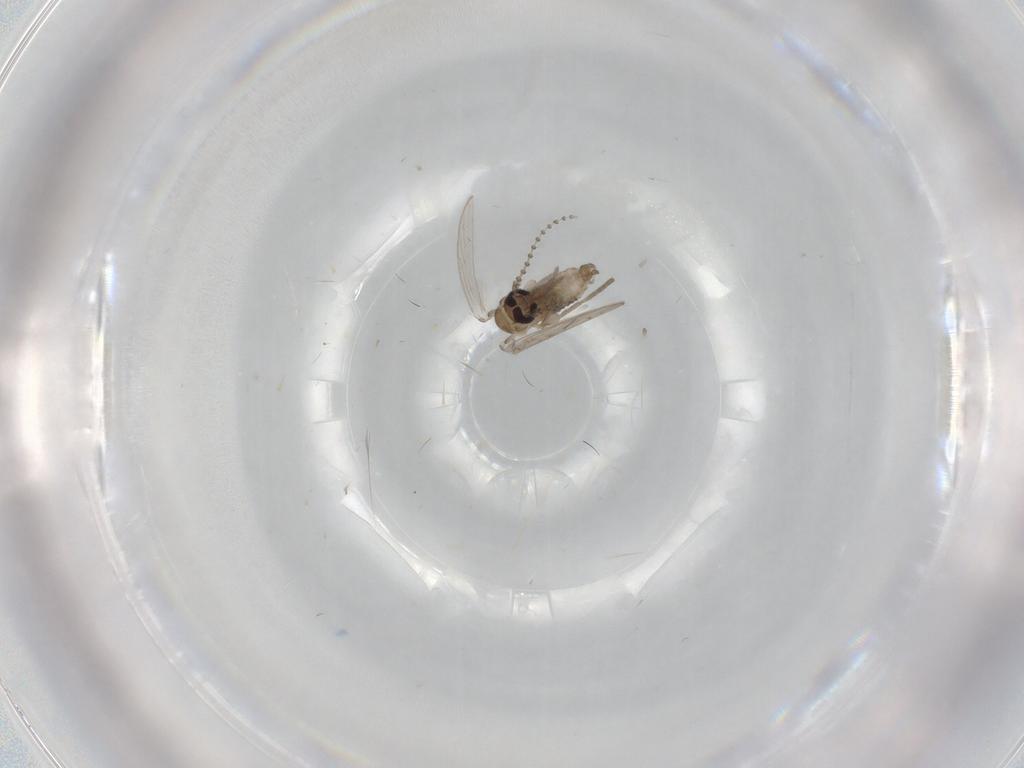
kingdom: Animalia
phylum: Arthropoda
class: Insecta
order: Diptera
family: Psychodidae
